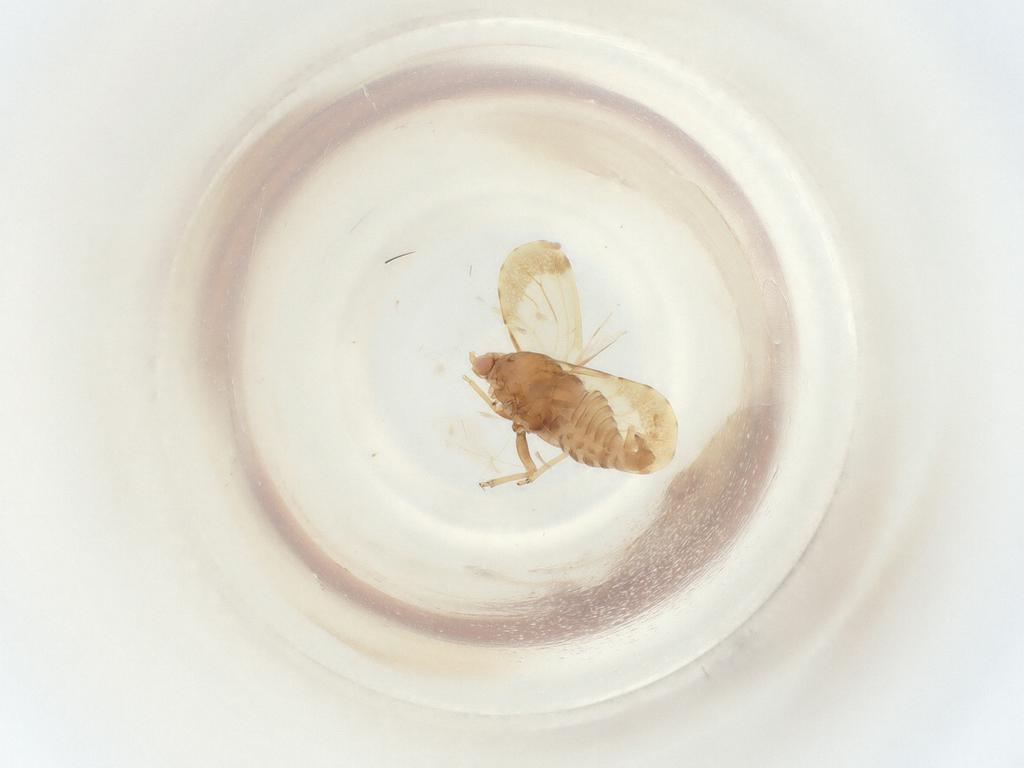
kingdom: Animalia
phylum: Arthropoda
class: Insecta
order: Hemiptera
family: Psyllidae
